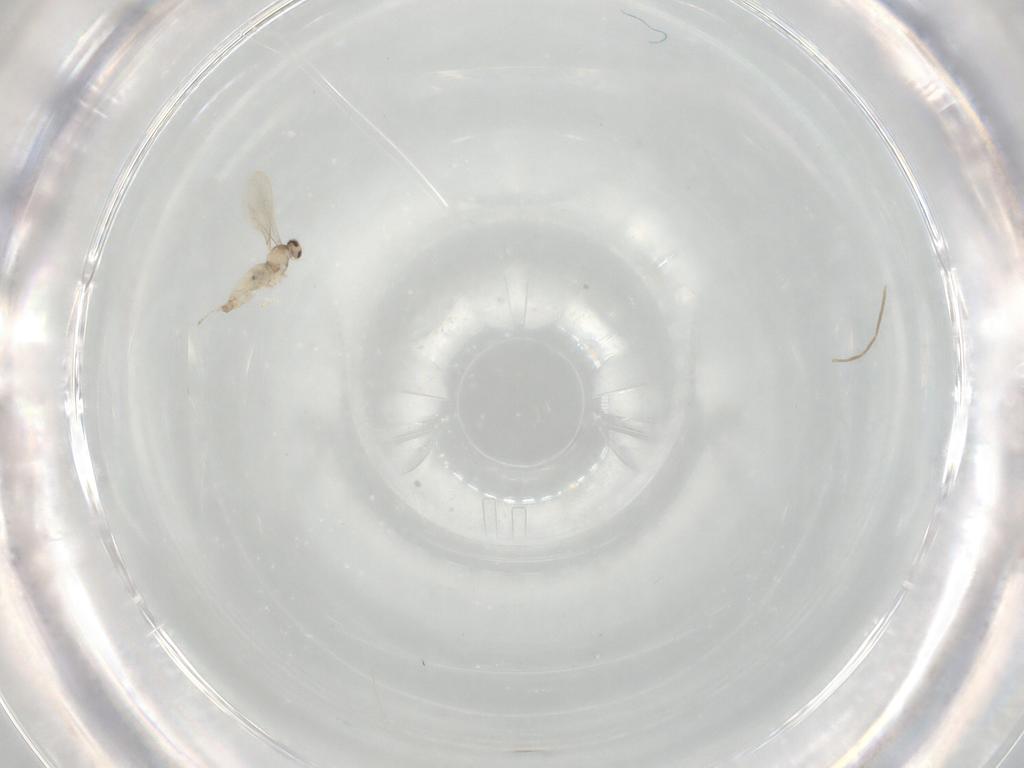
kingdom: Animalia
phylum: Arthropoda
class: Insecta
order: Diptera
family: Cecidomyiidae
